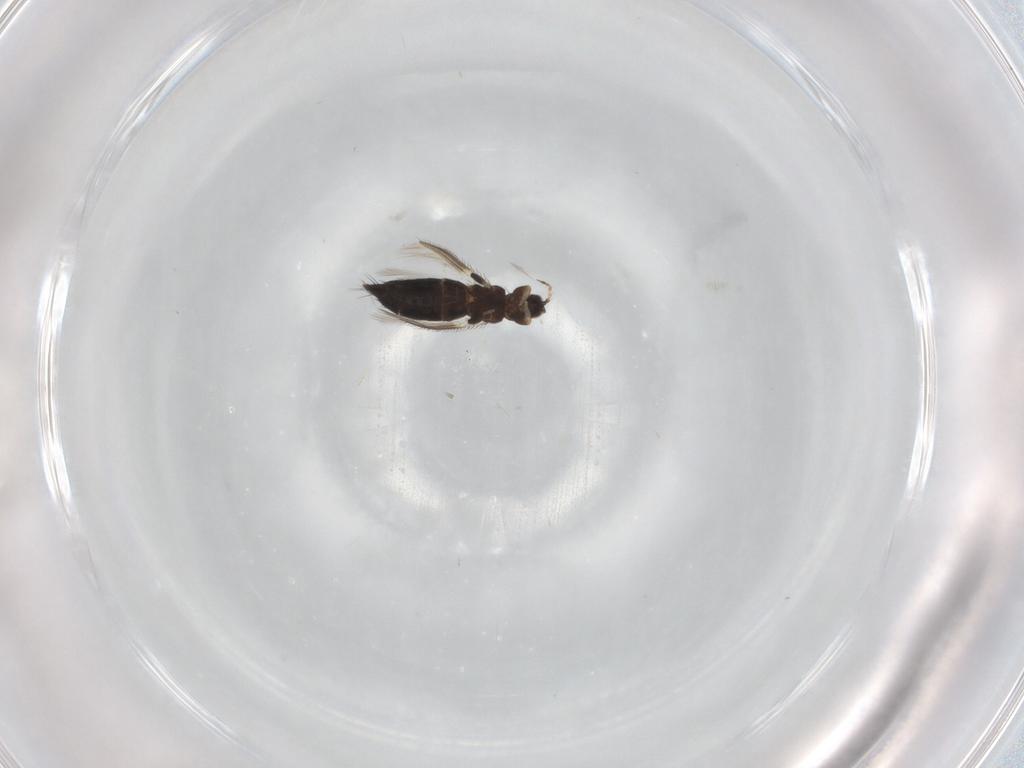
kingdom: Animalia
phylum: Arthropoda
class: Insecta
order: Thysanoptera
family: Thripidae
